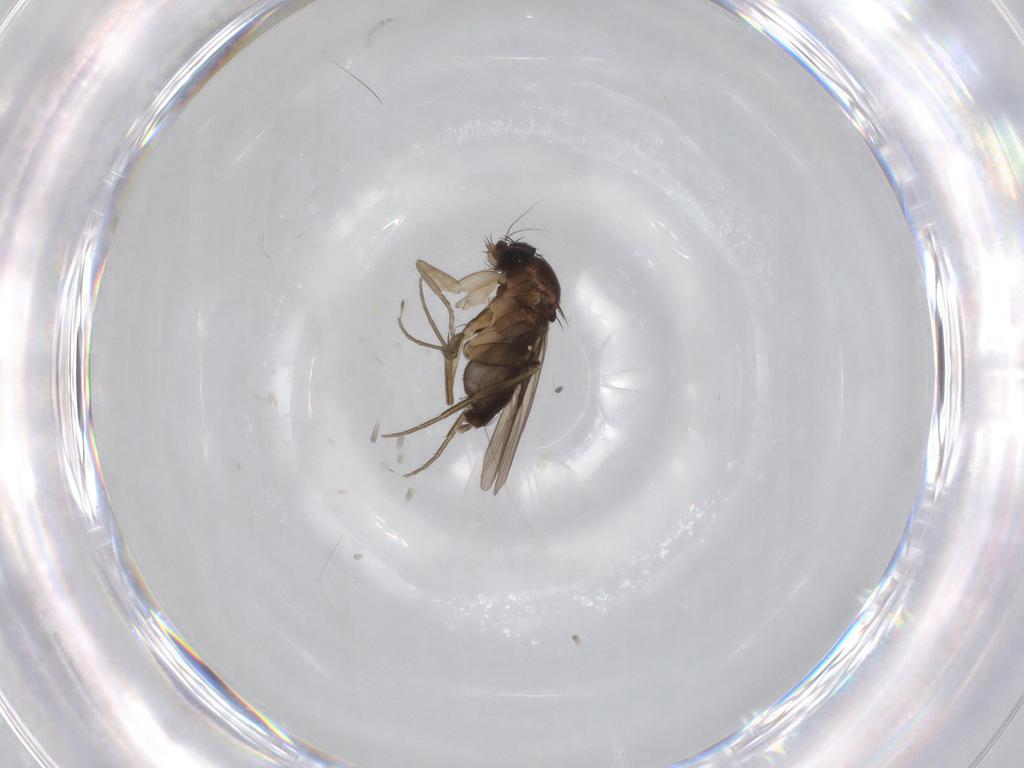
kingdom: Animalia
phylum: Arthropoda
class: Insecta
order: Diptera
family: Phoridae
